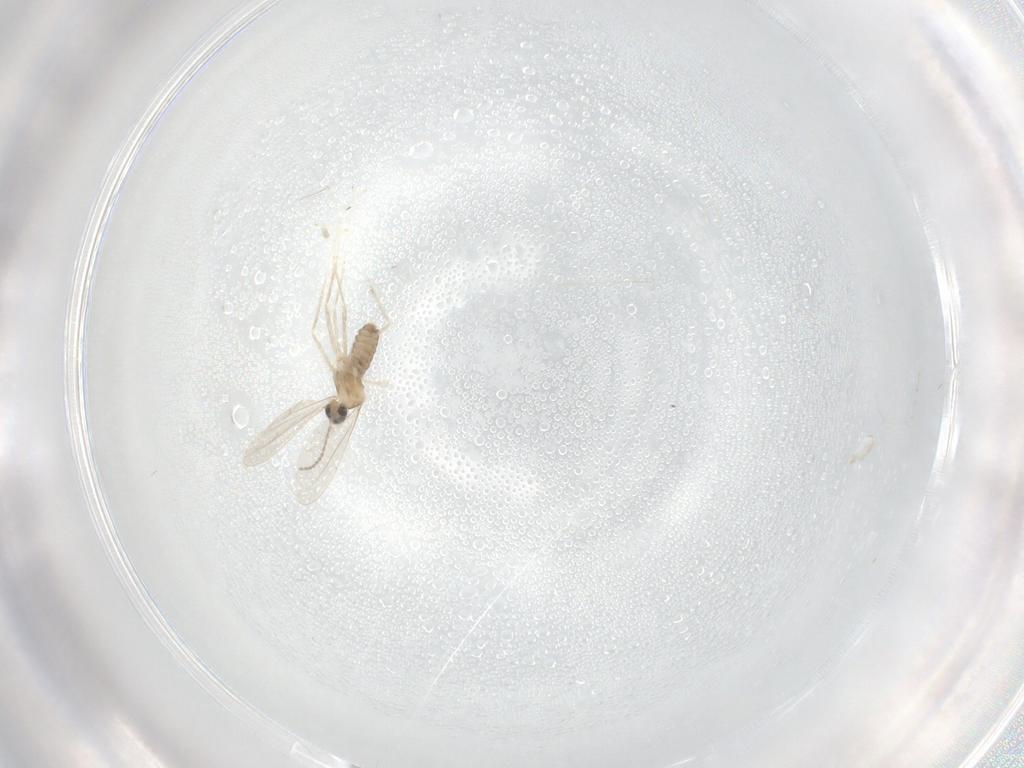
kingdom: Animalia
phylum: Arthropoda
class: Insecta
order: Diptera
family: Cecidomyiidae
